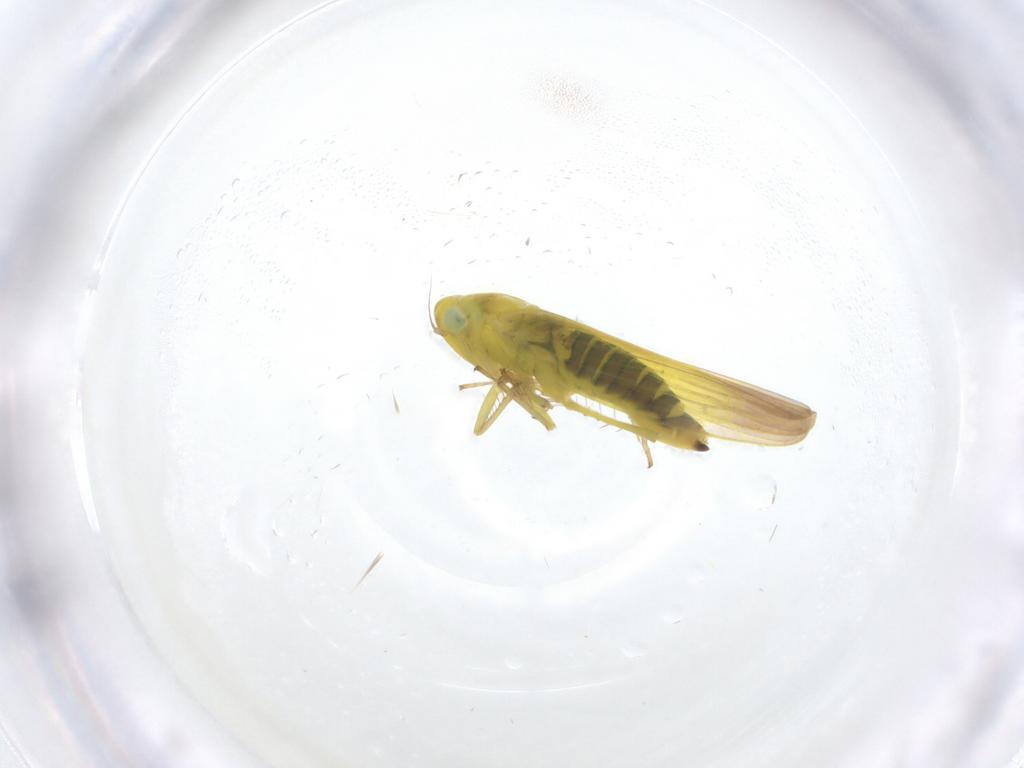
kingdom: Animalia
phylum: Arthropoda
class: Insecta
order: Hemiptera
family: Cicadellidae
